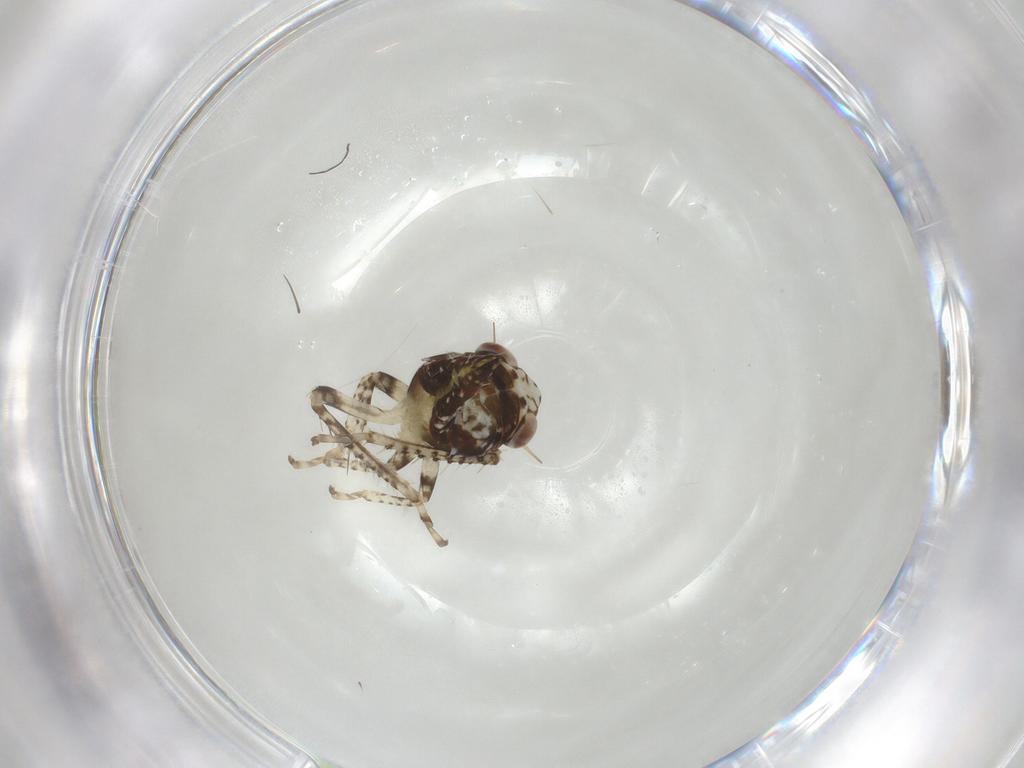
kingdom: Animalia
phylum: Arthropoda
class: Insecta
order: Hemiptera
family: Cicadellidae
